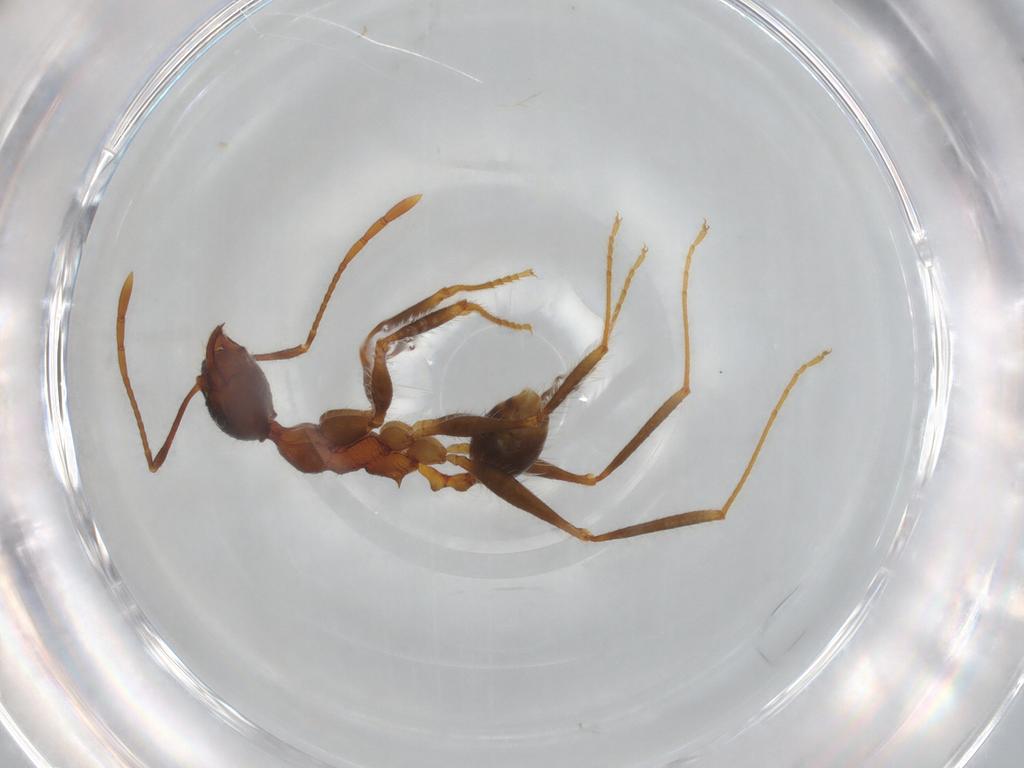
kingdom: Animalia
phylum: Arthropoda
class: Insecta
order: Hymenoptera
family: Formicidae
